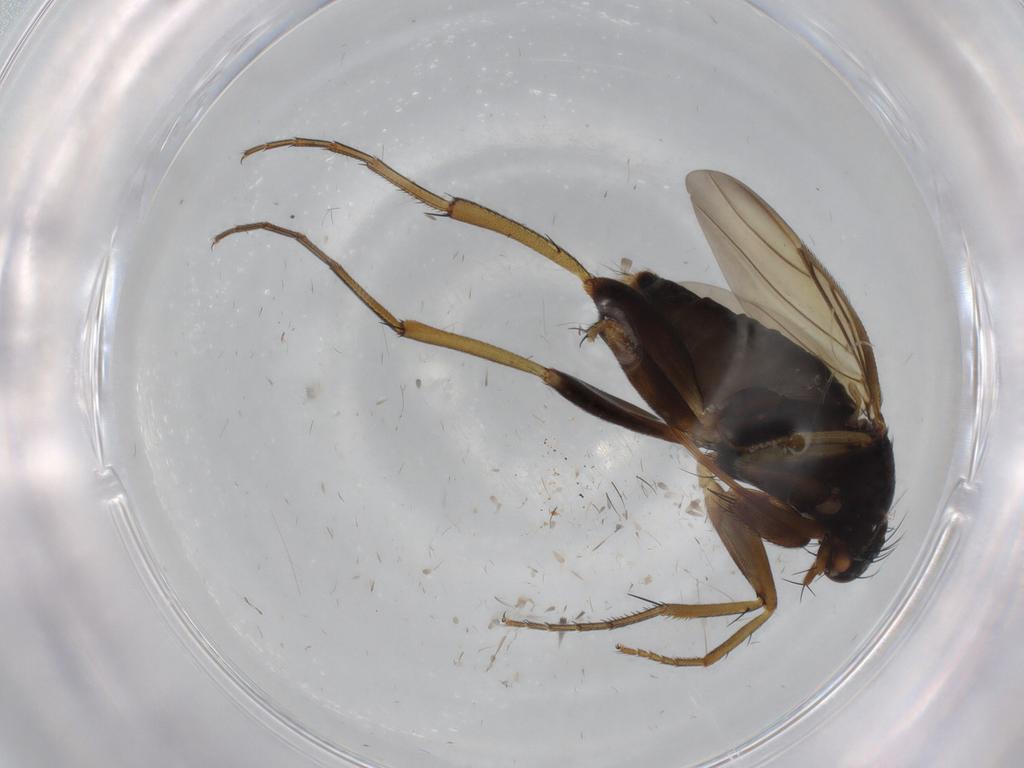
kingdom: Animalia
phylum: Arthropoda
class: Insecta
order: Diptera
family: Phoridae
